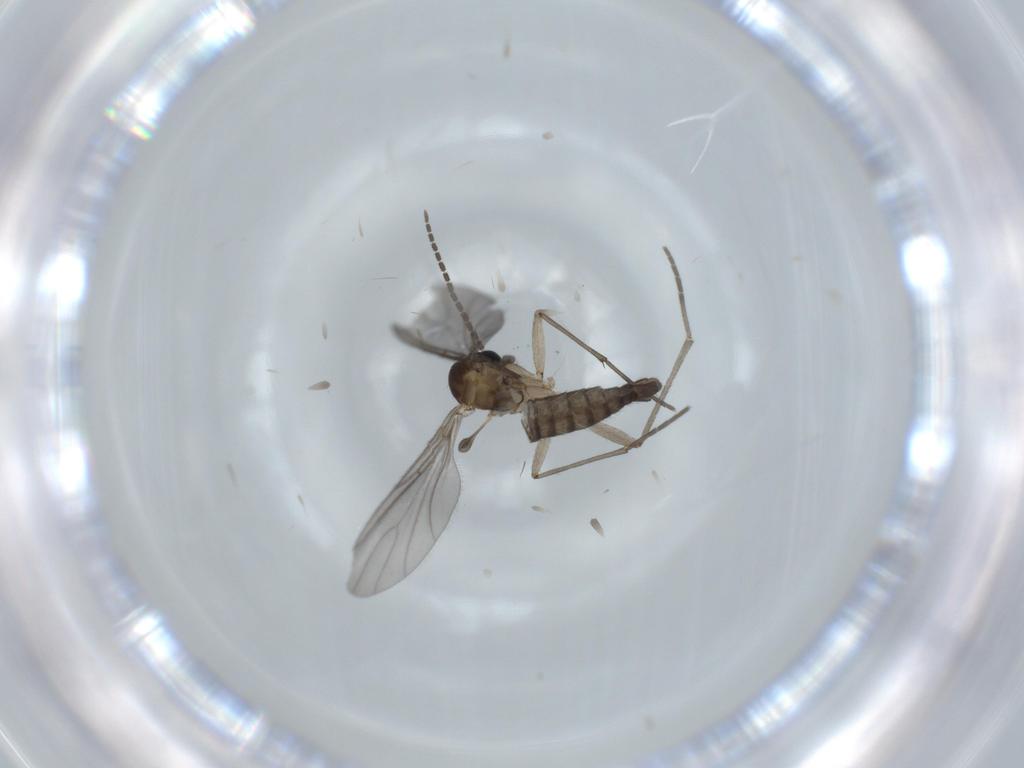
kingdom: Animalia
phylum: Arthropoda
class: Insecta
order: Diptera
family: Sciaridae
